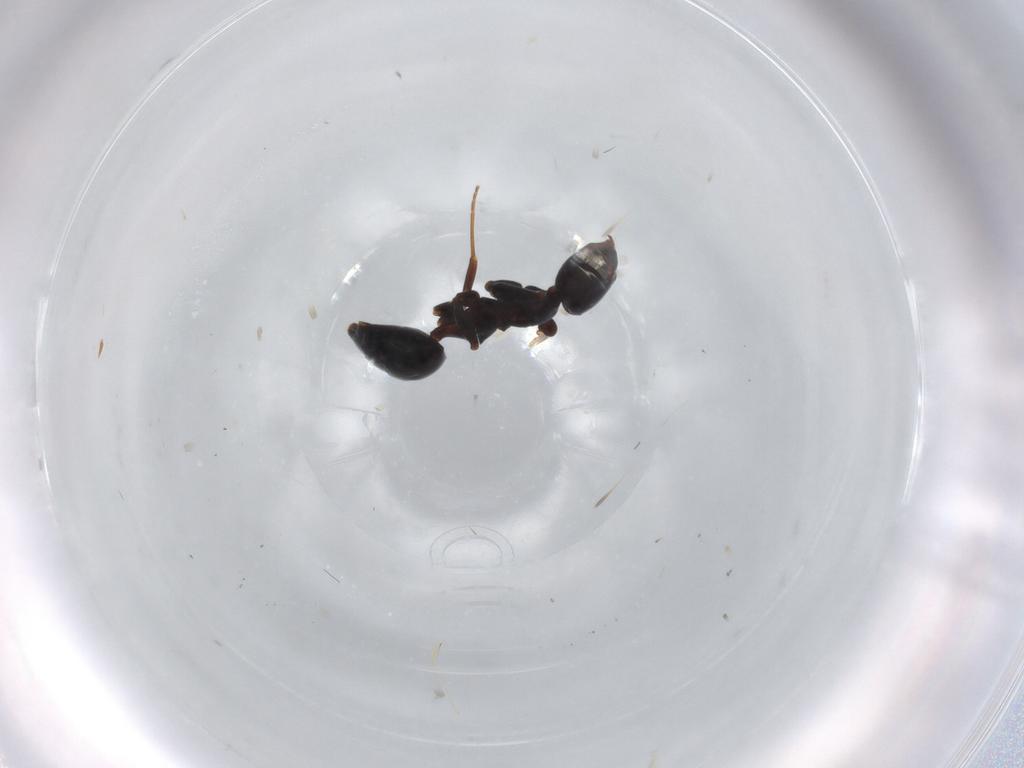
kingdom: Animalia
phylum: Arthropoda
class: Insecta
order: Hymenoptera
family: Formicidae
